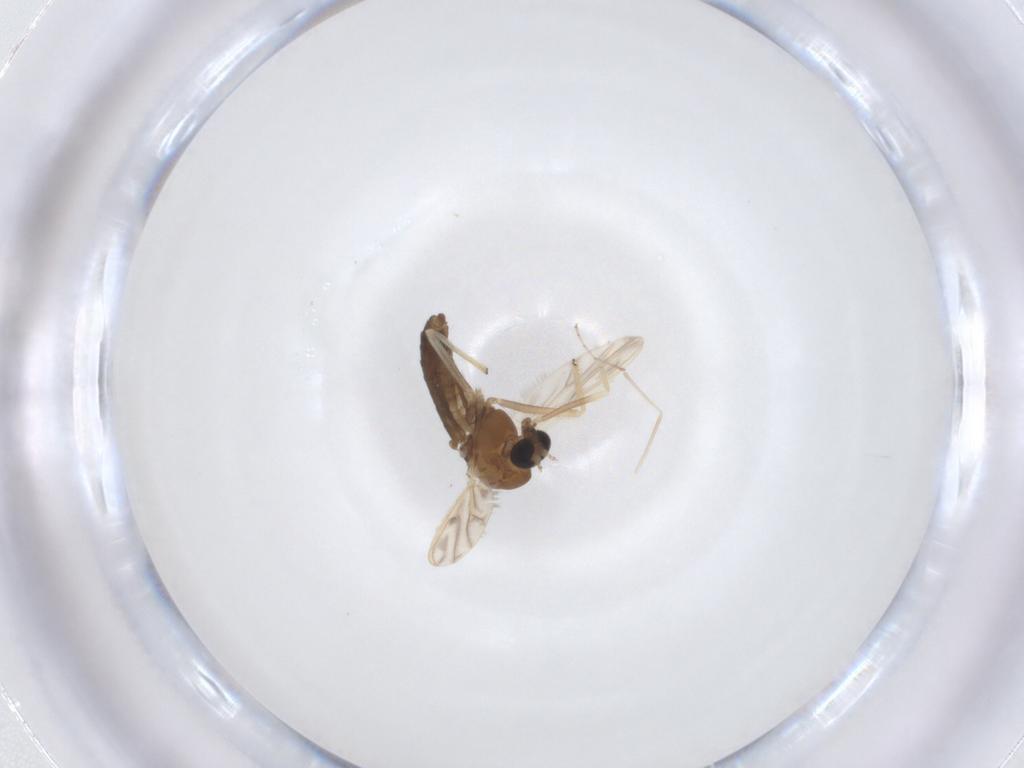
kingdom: Animalia
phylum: Arthropoda
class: Insecta
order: Diptera
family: Chironomidae
